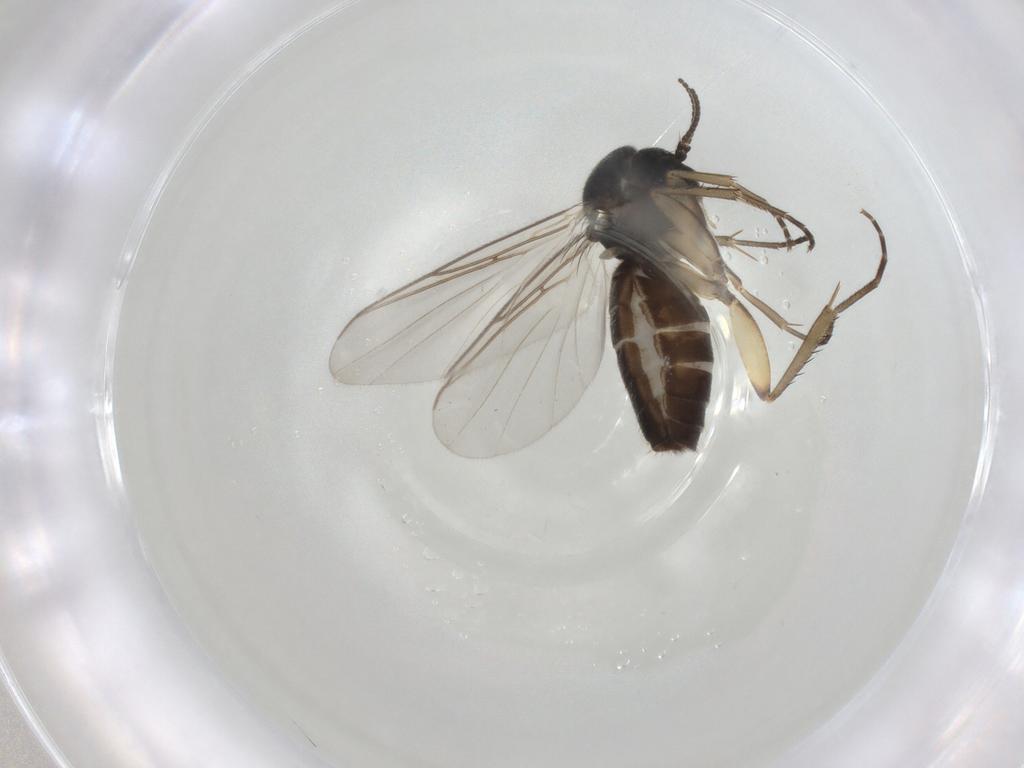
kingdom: Animalia
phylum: Arthropoda
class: Insecta
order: Diptera
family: Mycetophilidae
